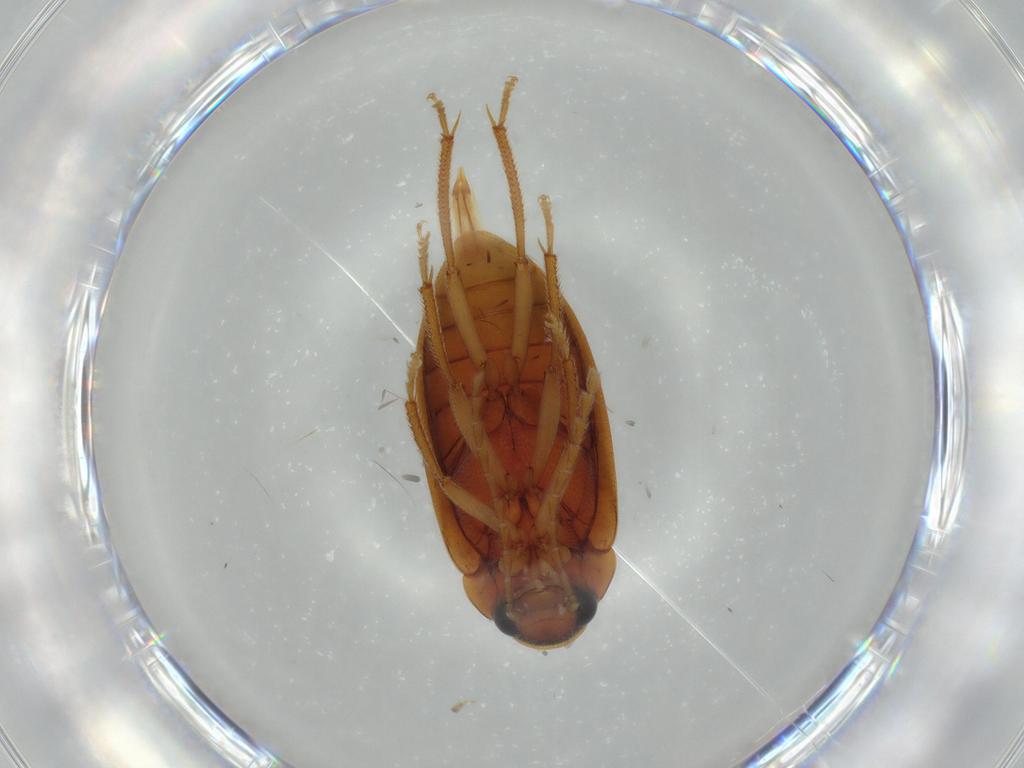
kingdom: Animalia
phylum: Arthropoda
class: Insecta
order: Coleoptera
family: Ptilodactylidae
